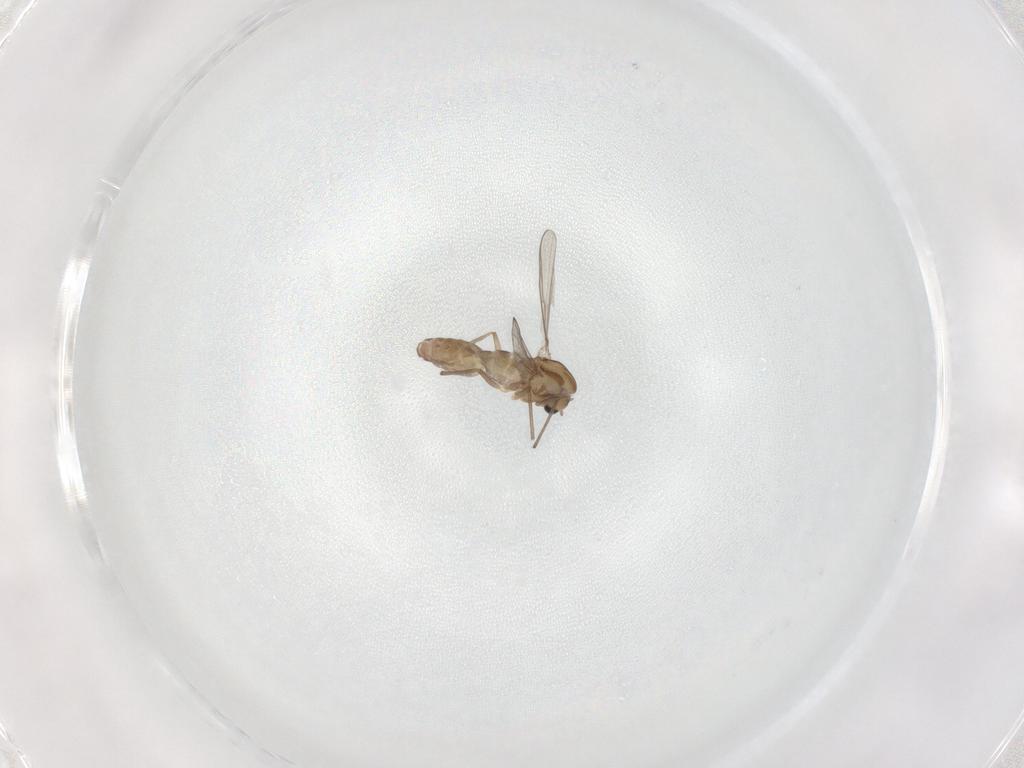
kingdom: Animalia
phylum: Arthropoda
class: Insecta
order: Diptera
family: Chironomidae
